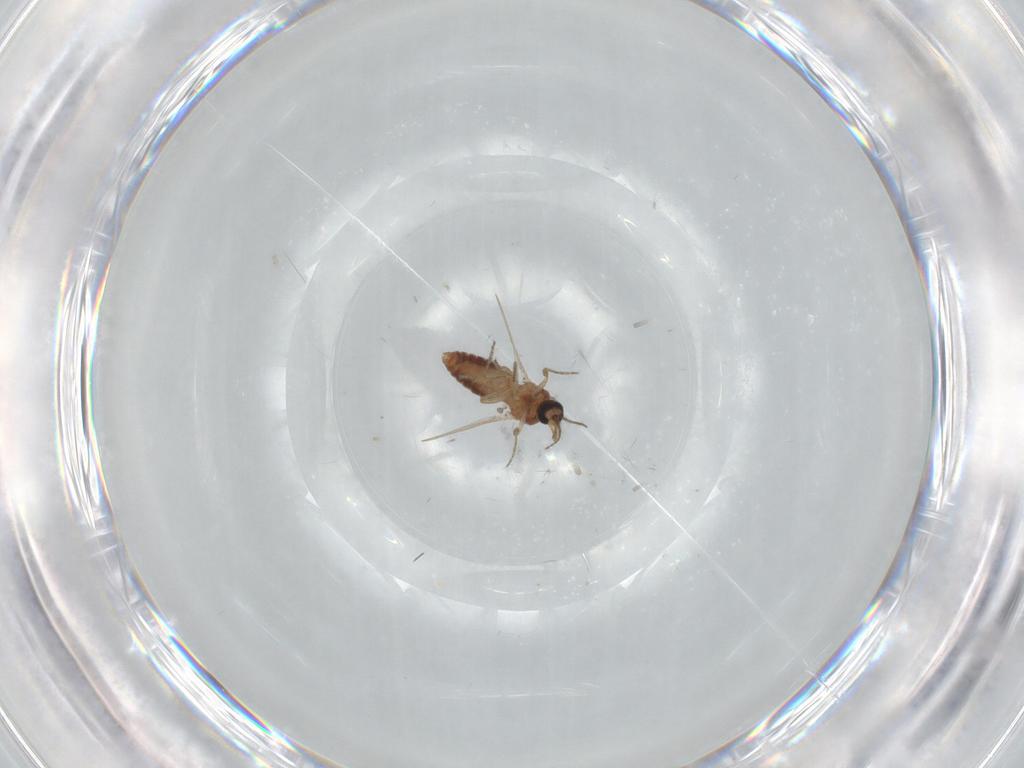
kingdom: Animalia
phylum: Arthropoda
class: Insecta
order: Diptera
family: Ceratopogonidae
